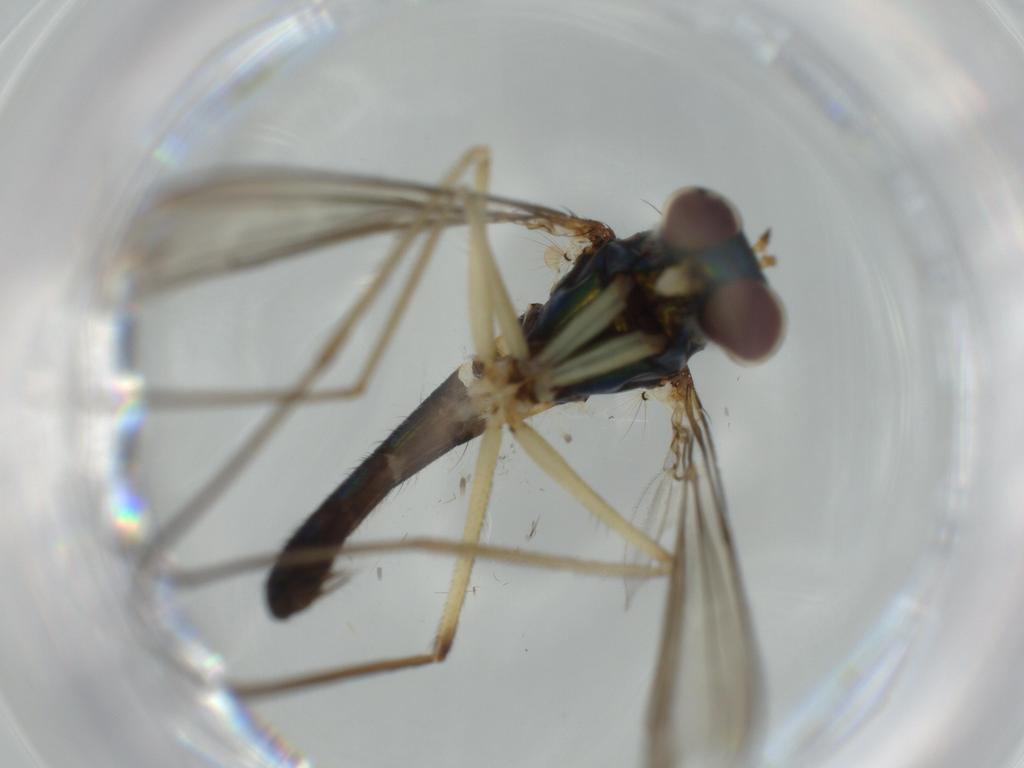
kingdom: Animalia
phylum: Arthropoda
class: Insecta
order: Diptera
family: Dolichopodidae
